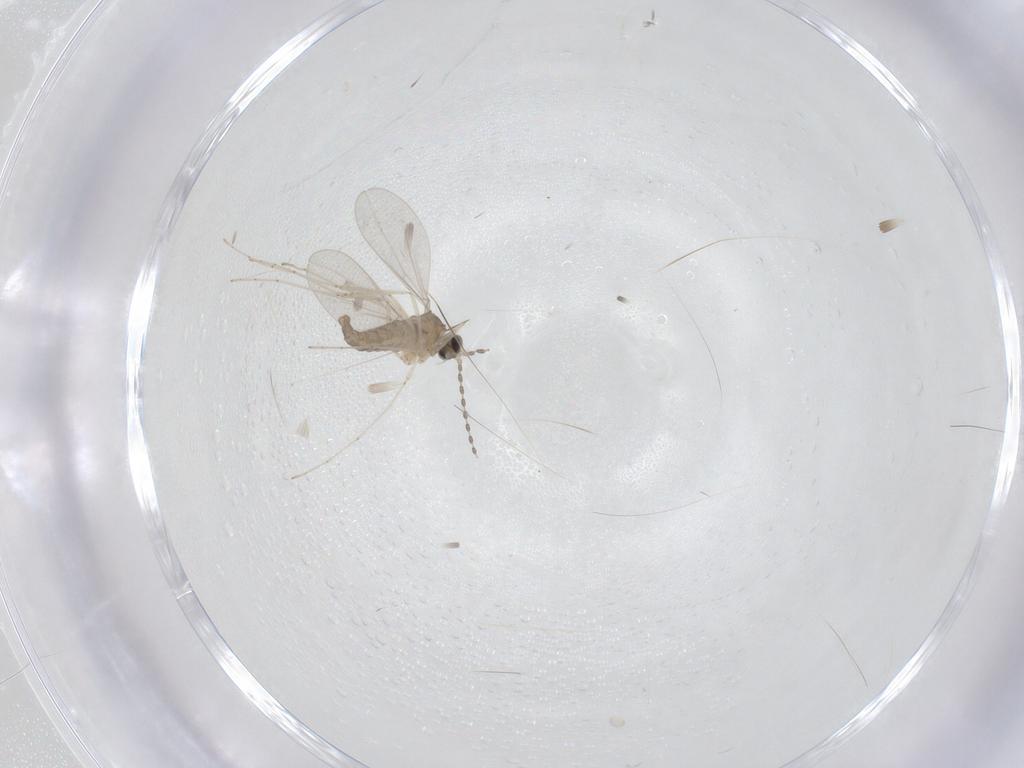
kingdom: Animalia
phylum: Arthropoda
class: Insecta
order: Diptera
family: Cecidomyiidae
